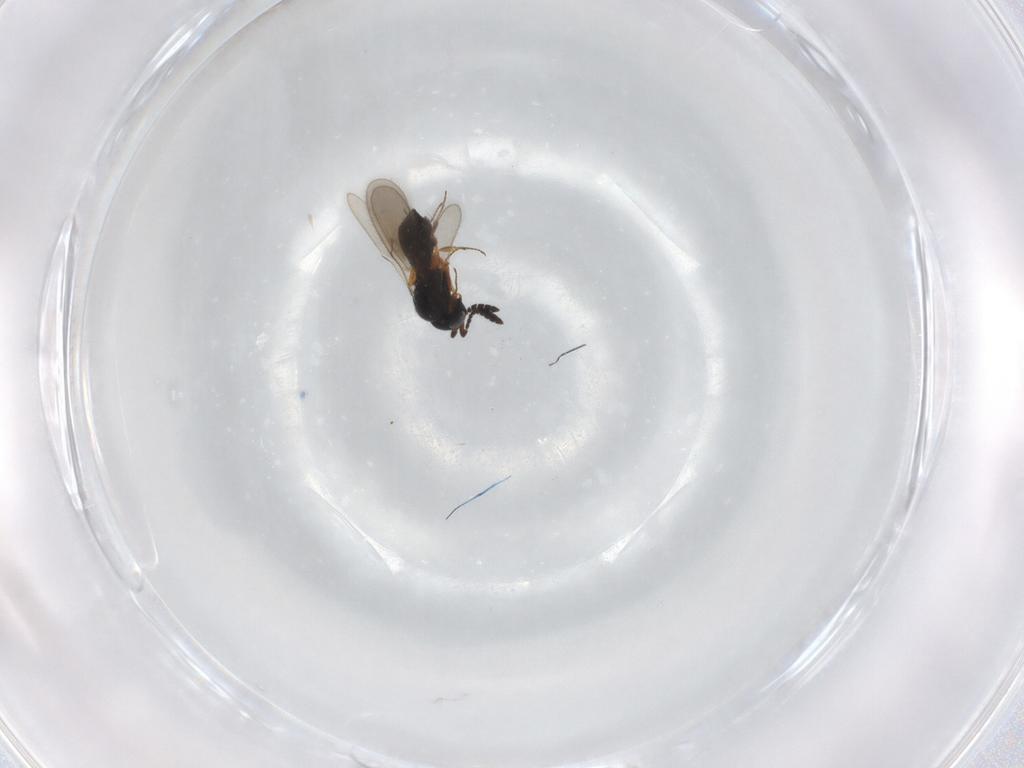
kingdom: Animalia
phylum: Arthropoda
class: Insecta
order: Hymenoptera
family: Scelionidae
